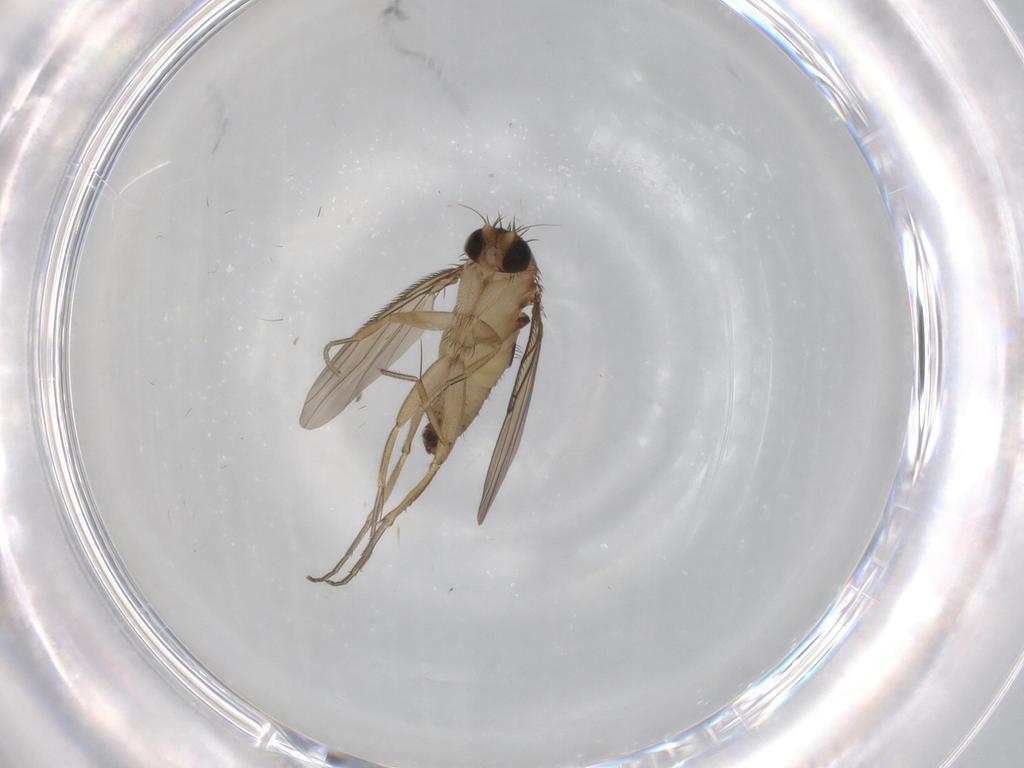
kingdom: Animalia
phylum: Arthropoda
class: Insecta
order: Diptera
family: Phoridae
